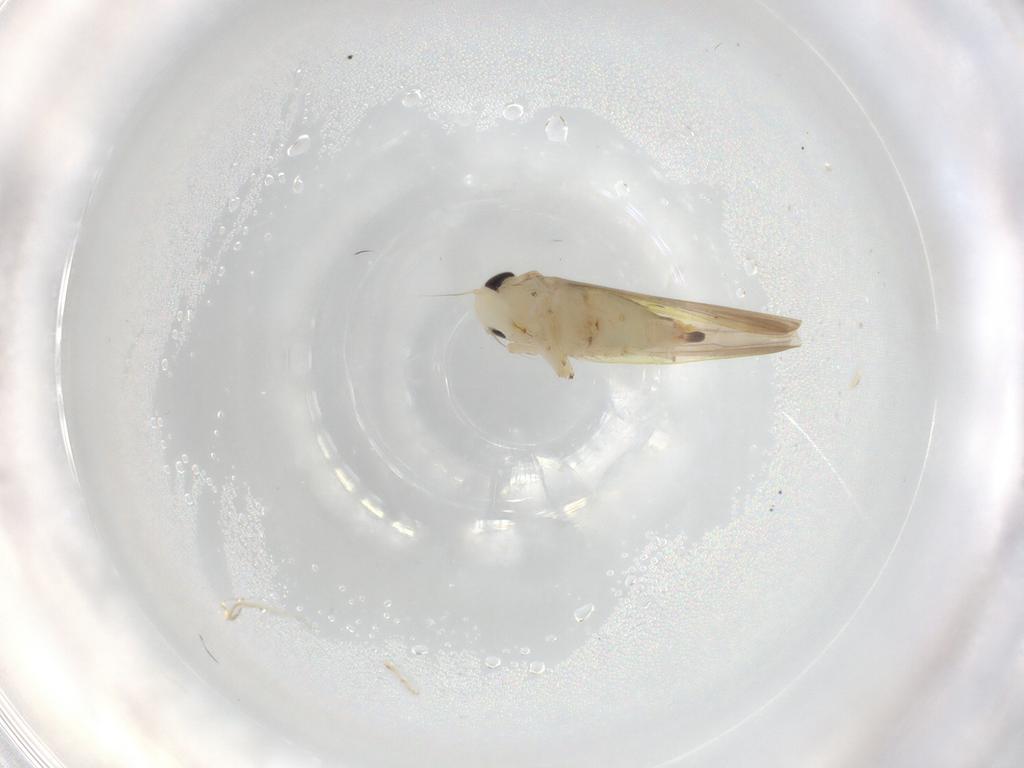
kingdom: Animalia
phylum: Arthropoda
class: Insecta
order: Hemiptera
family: Cicadellidae
